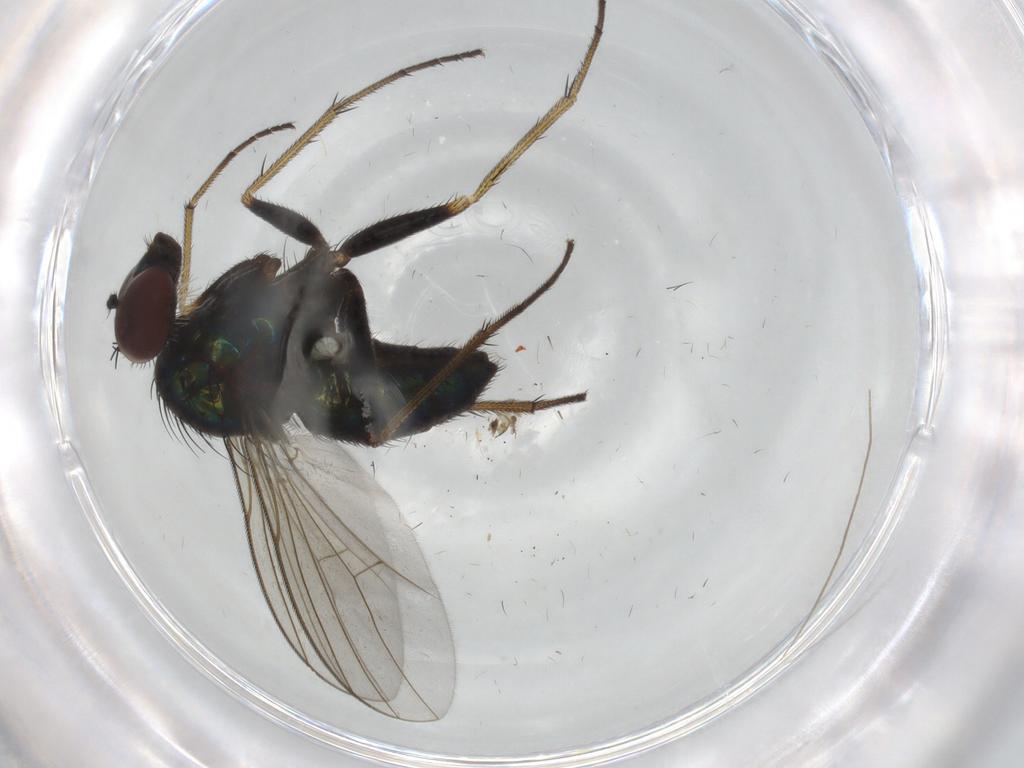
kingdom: Animalia
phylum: Arthropoda
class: Insecta
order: Diptera
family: Dolichopodidae
